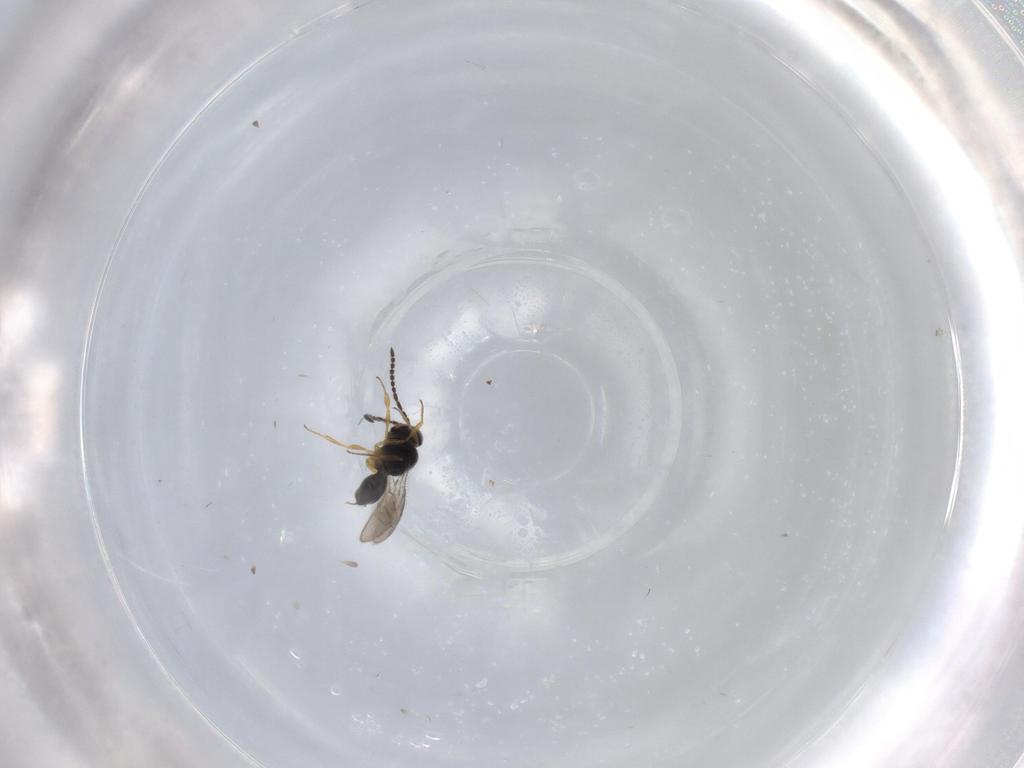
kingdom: Animalia
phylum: Arthropoda
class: Insecta
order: Hymenoptera
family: Scelionidae
